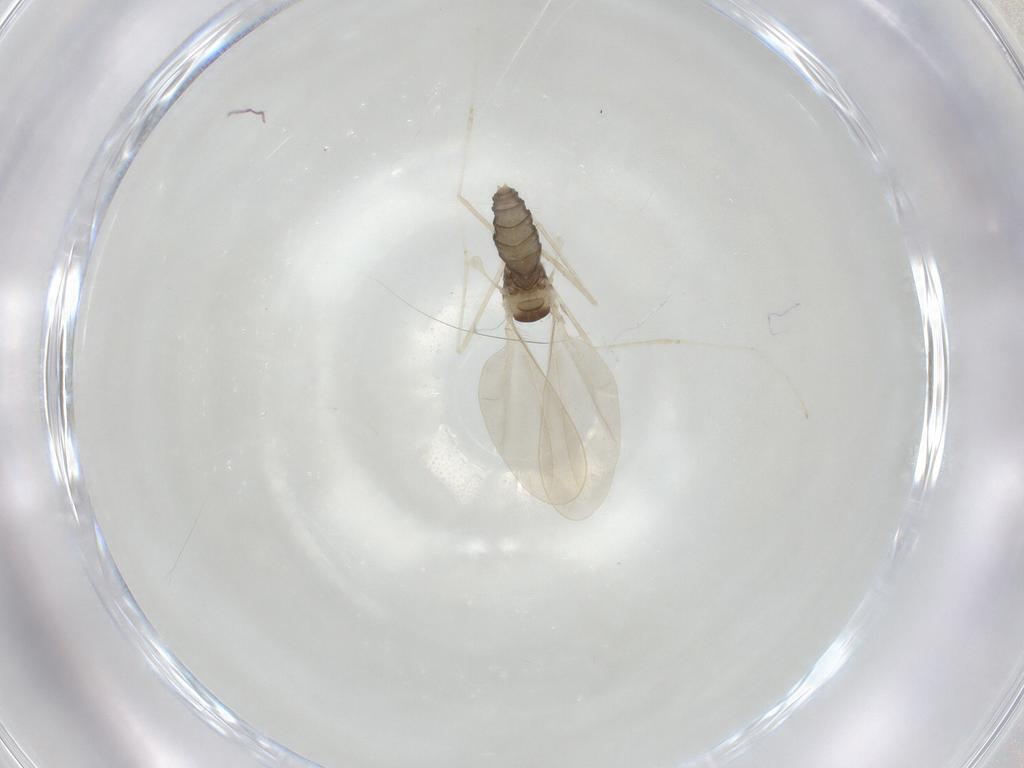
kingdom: Animalia
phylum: Arthropoda
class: Insecta
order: Diptera
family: Cecidomyiidae
